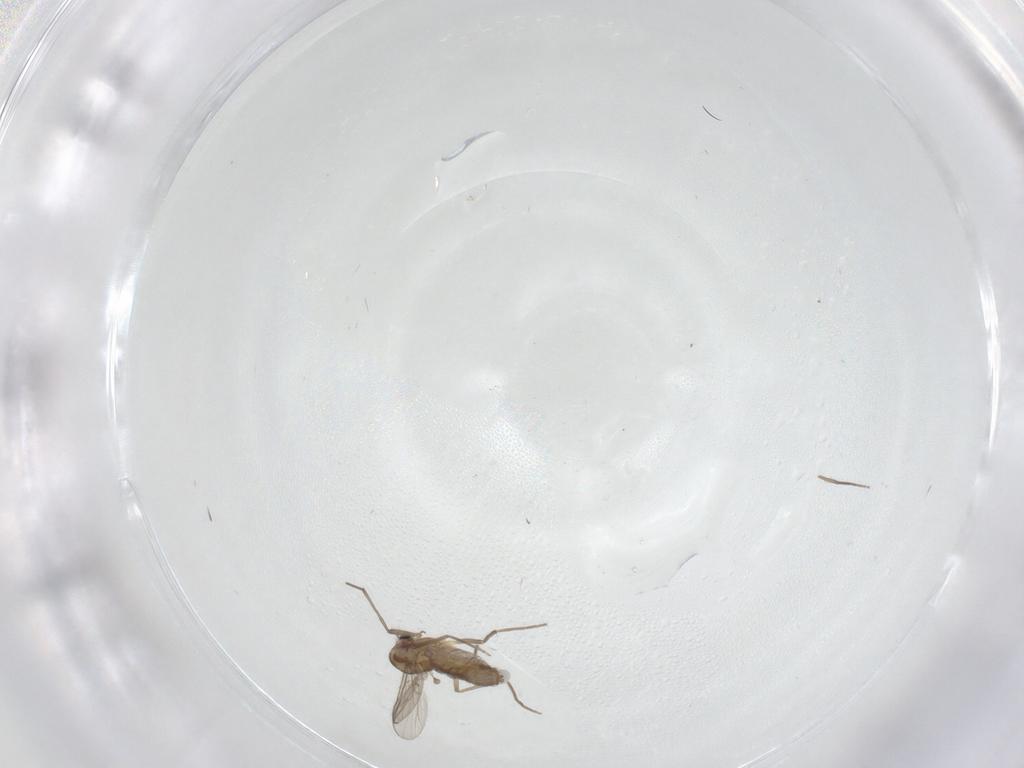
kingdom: Animalia
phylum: Arthropoda
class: Insecta
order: Diptera
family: Chironomidae
